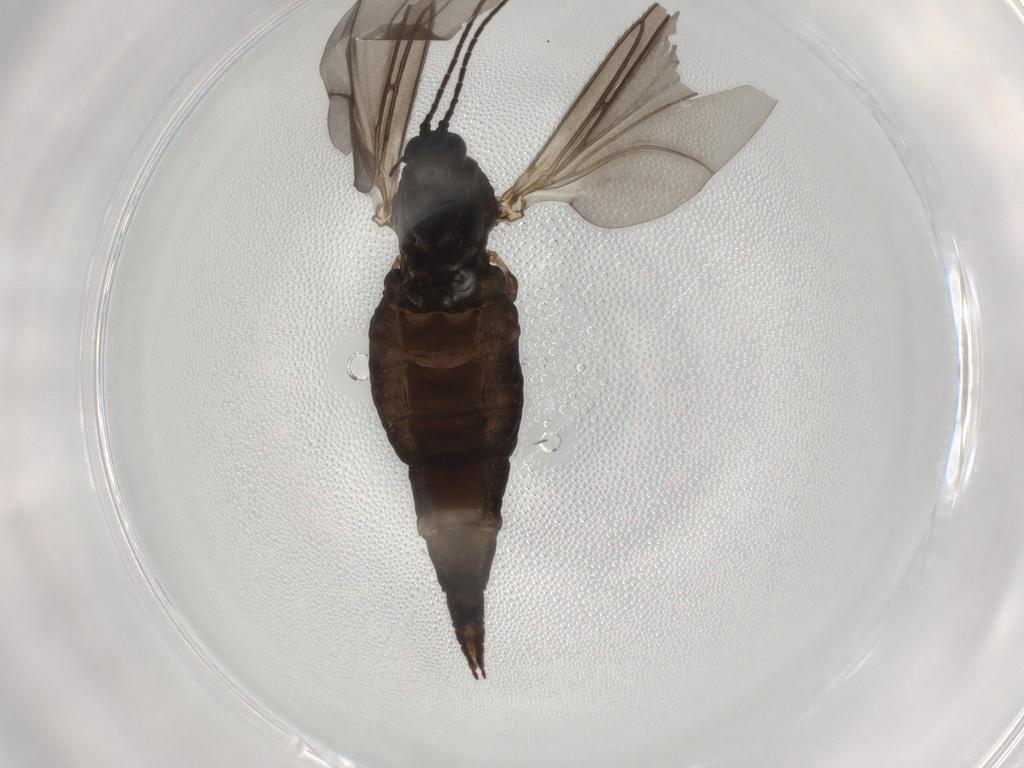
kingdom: Animalia
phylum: Arthropoda
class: Insecta
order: Diptera
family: Sciaridae
